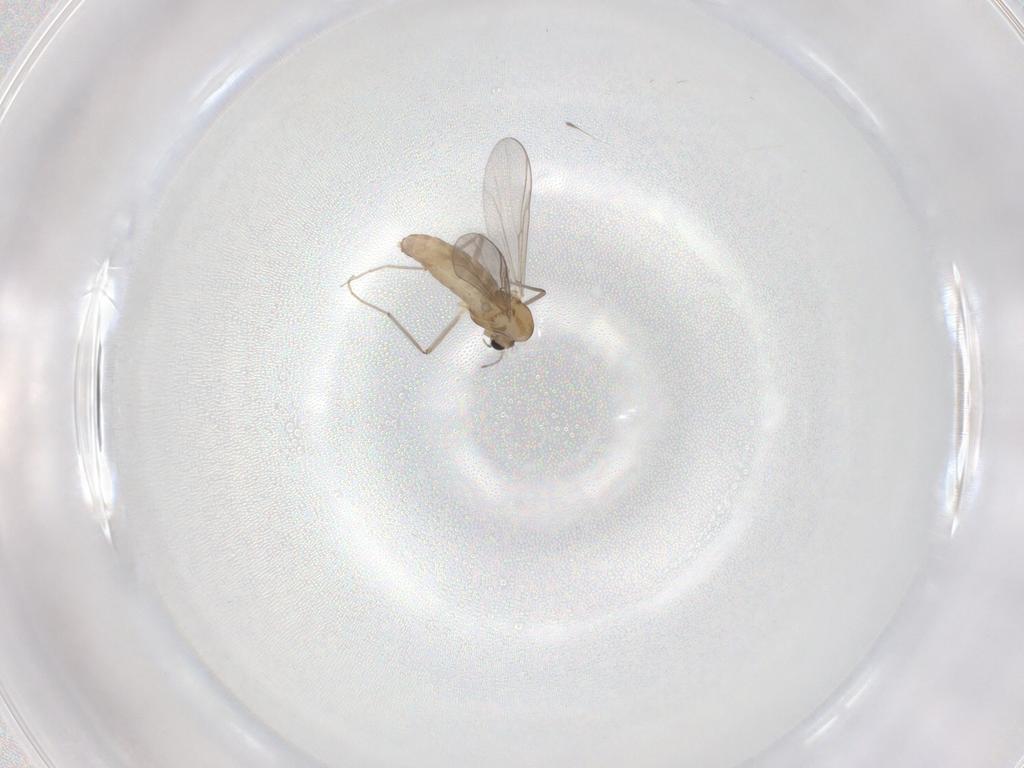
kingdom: Animalia
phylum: Arthropoda
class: Insecta
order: Diptera
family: Chironomidae
